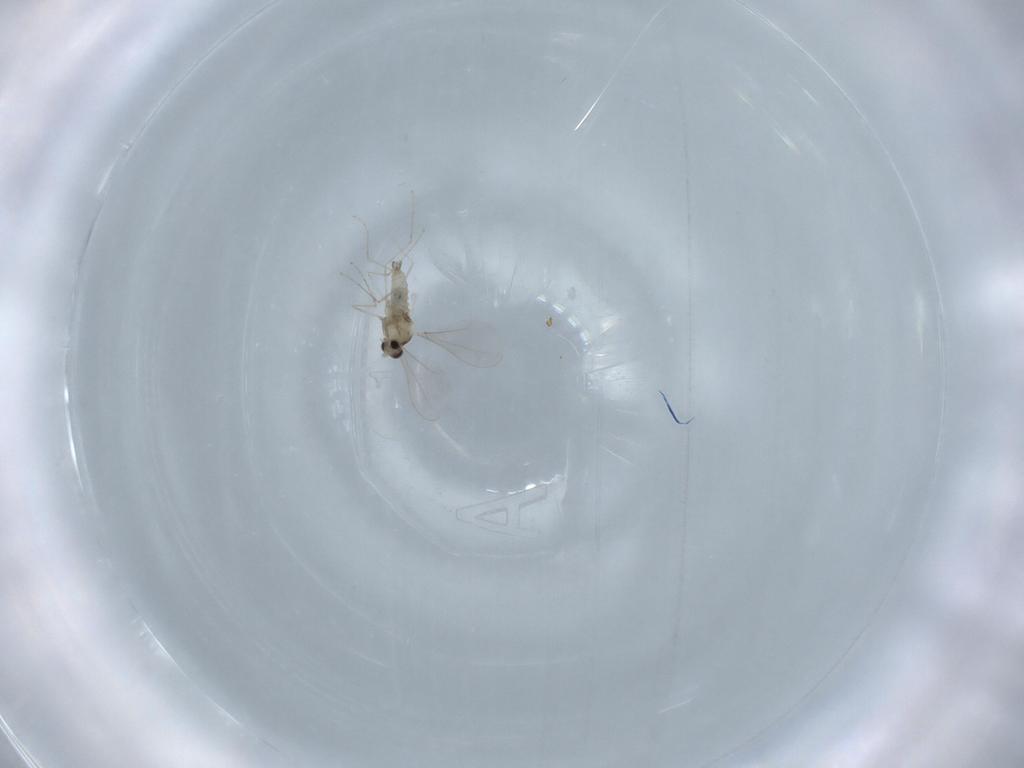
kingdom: Animalia
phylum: Arthropoda
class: Insecta
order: Diptera
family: Cecidomyiidae
